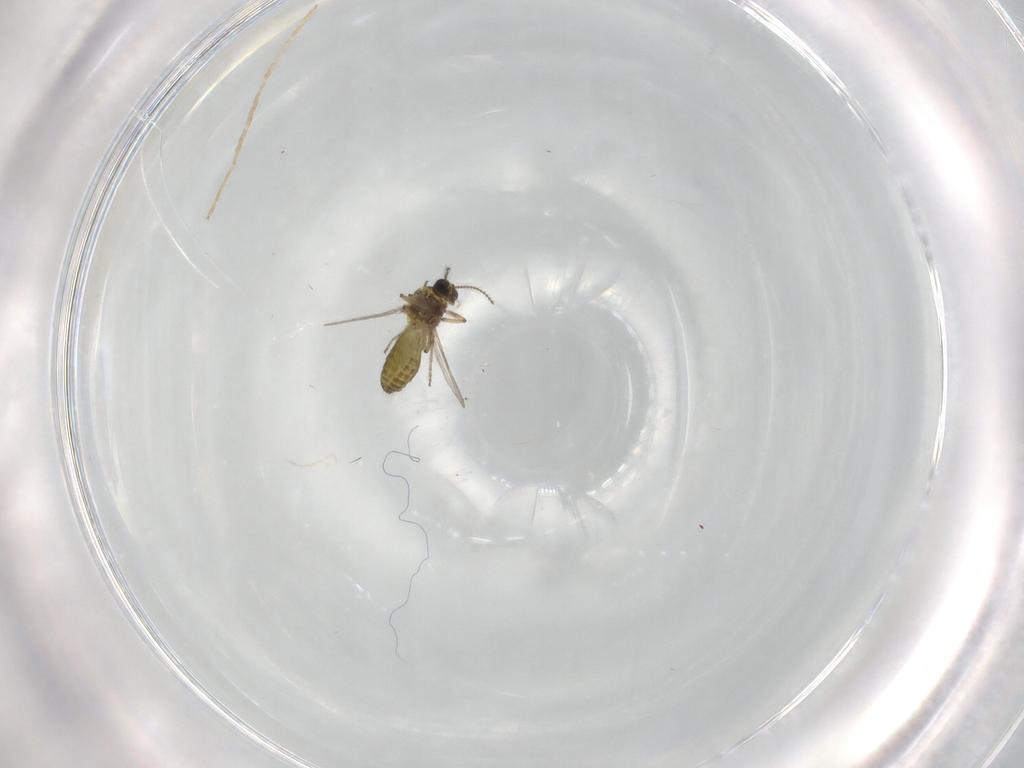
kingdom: Animalia
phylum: Arthropoda
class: Insecta
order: Diptera
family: Ceratopogonidae
